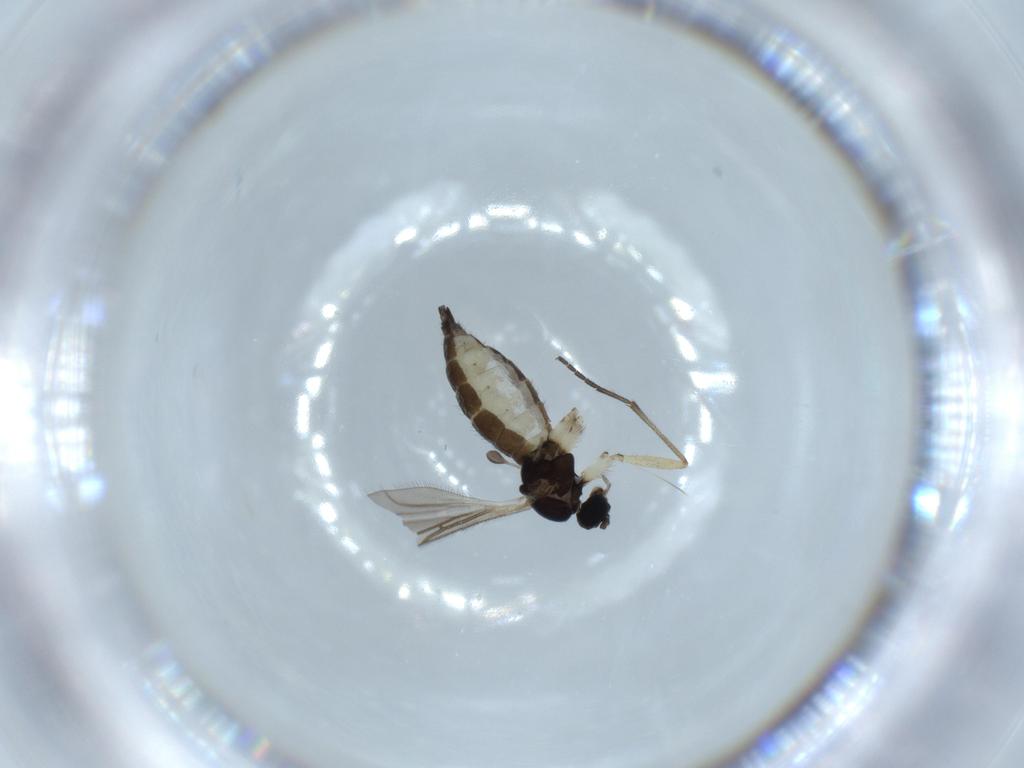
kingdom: Animalia
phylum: Arthropoda
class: Insecta
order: Diptera
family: Sciaridae
